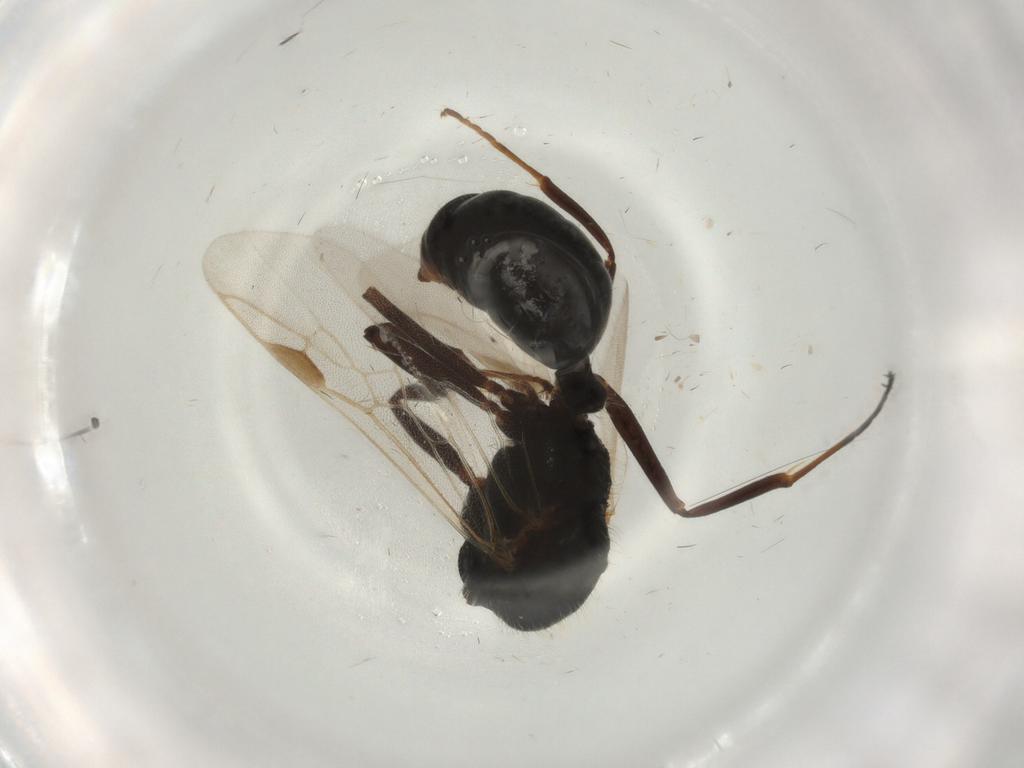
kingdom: Animalia
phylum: Arthropoda
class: Insecta
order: Hymenoptera
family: Formicidae
